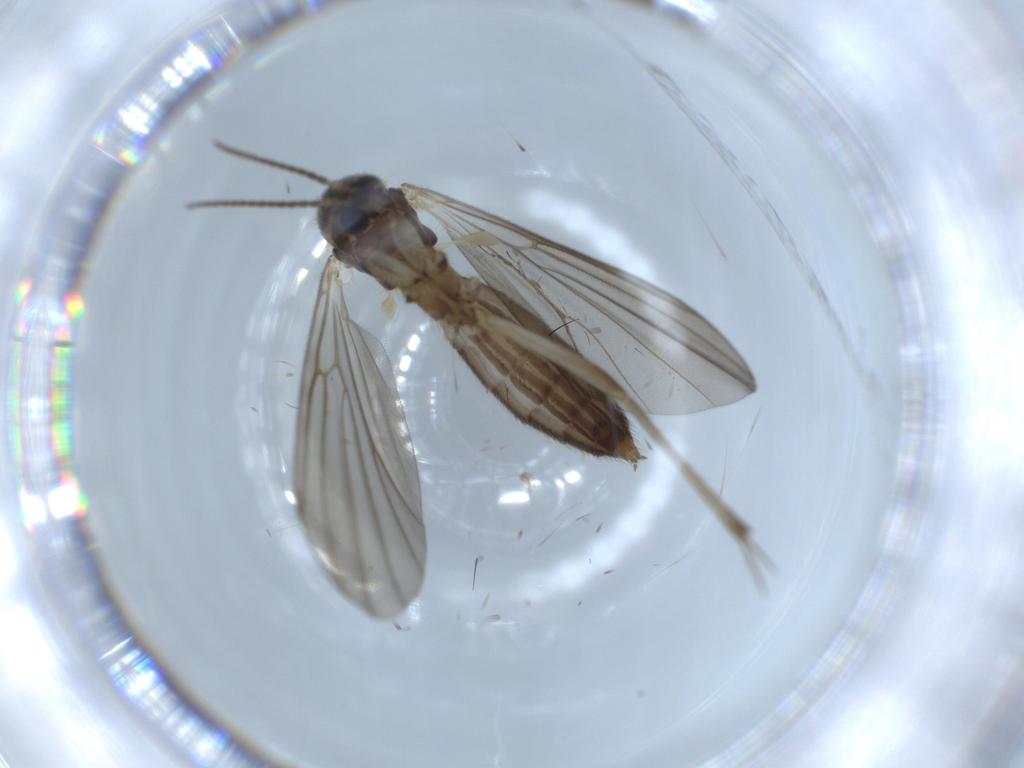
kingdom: Animalia
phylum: Arthropoda
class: Insecta
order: Diptera
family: Mycetophilidae
